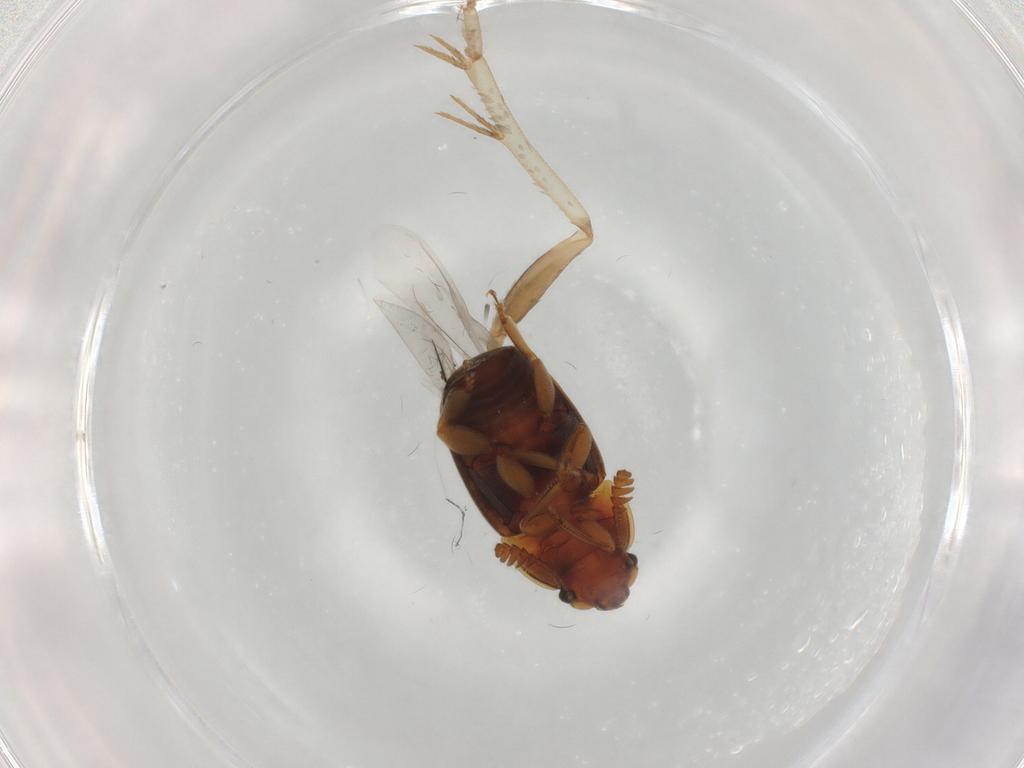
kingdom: Animalia
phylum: Arthropoda
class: Insecta
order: Coleoptera
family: Nitidulidae
